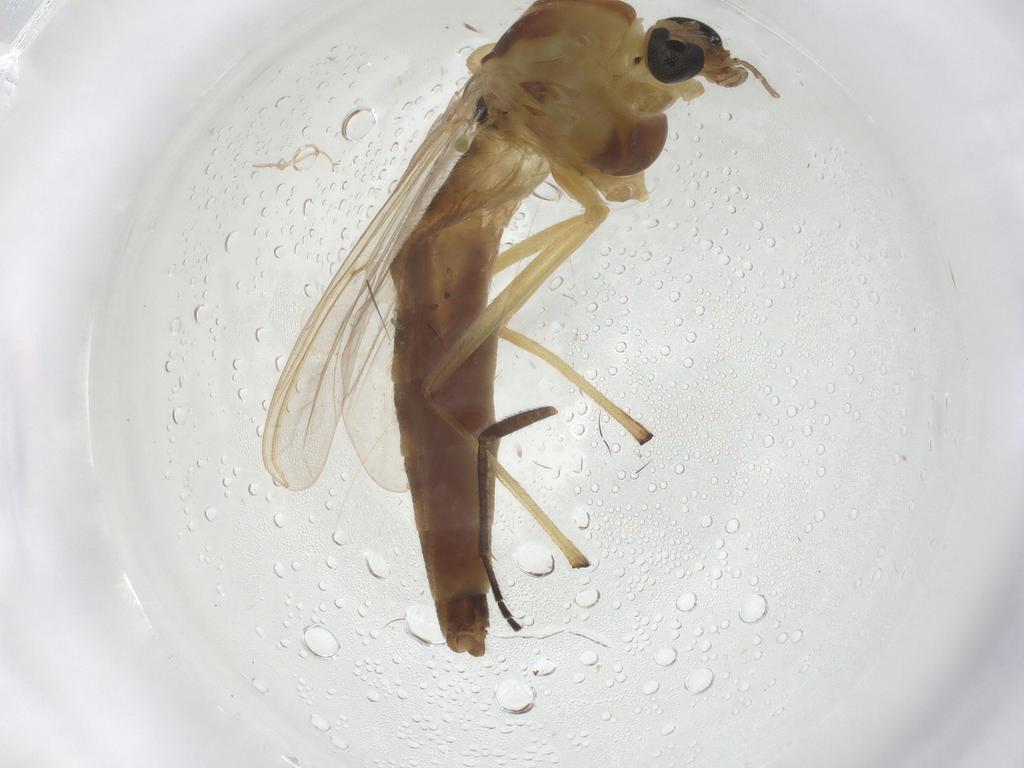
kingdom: Animalia
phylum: Arthropoda
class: Insecta
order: Diptera
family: Chironomidae
